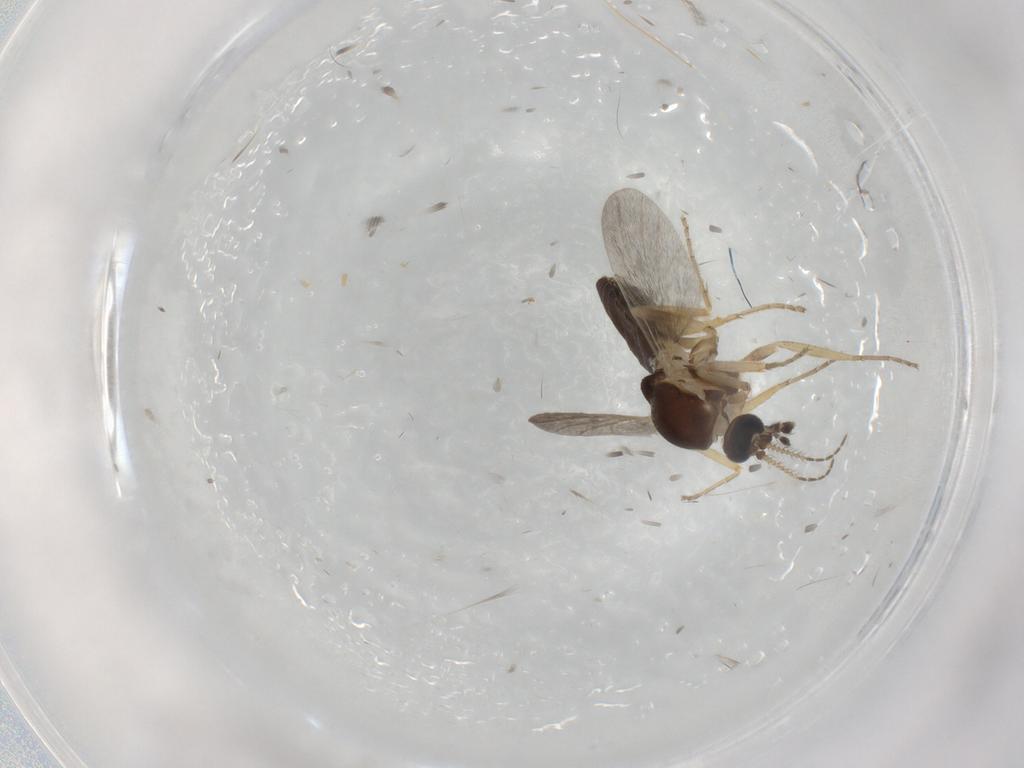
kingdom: Animalia
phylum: Arthropoda
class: Insecta
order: Diptera
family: Ceratopogonidae
